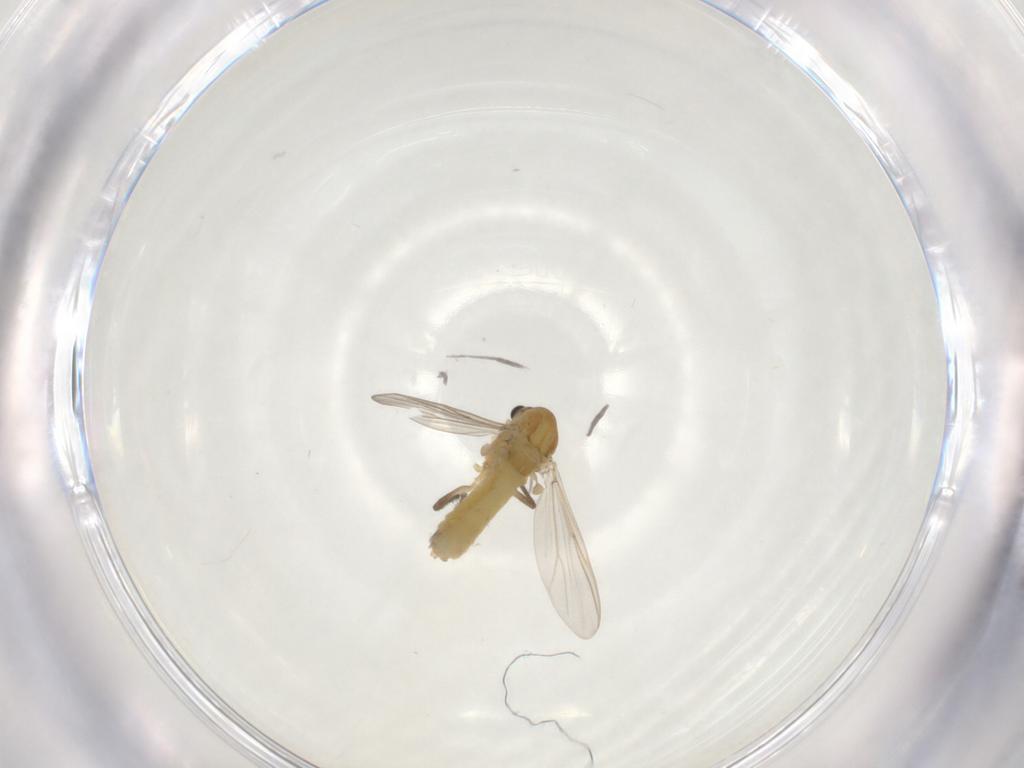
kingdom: Animalia
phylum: Arthropoda
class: Insecta
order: Diptera
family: Chironomidae
